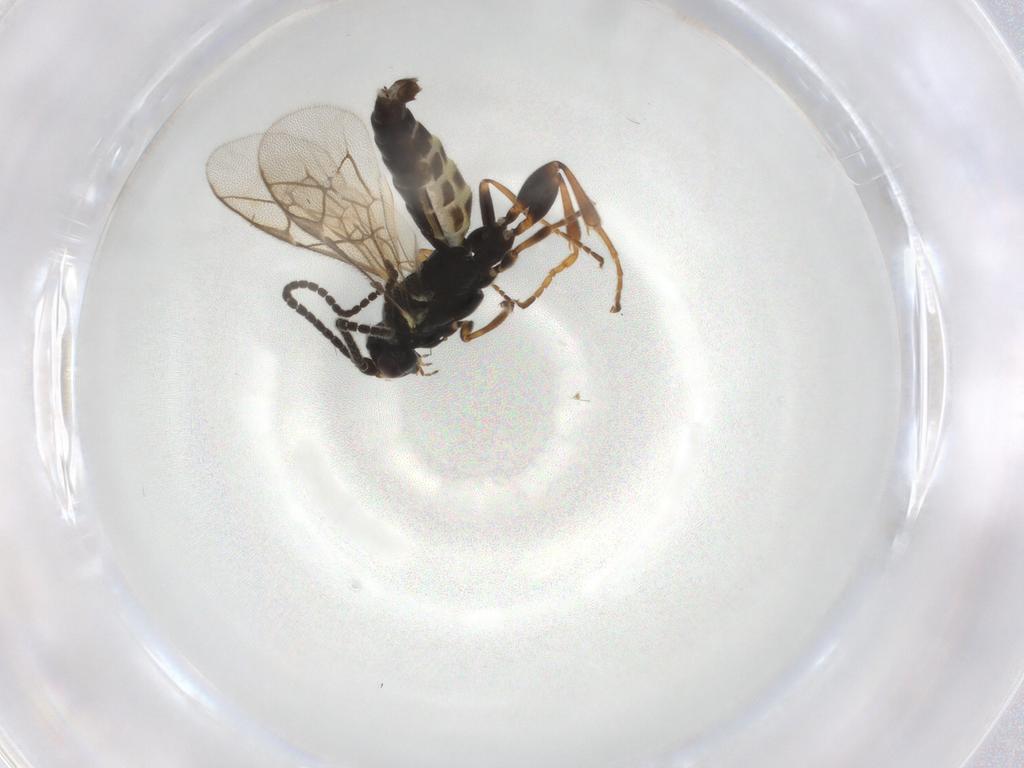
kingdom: Animalia
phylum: Arthropoda
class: Insecta
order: Hymenoptera
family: Ichneumonidae
